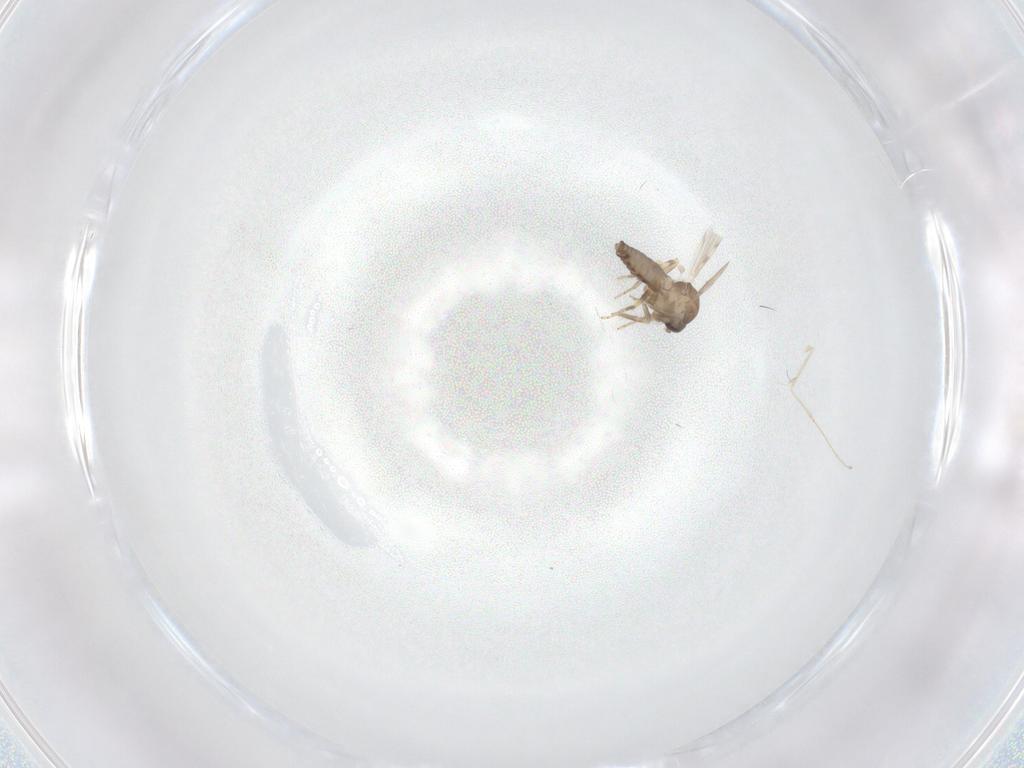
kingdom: Animalia
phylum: Arthropoda
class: Insecta
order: Diptera
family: Ceratopogonidae
